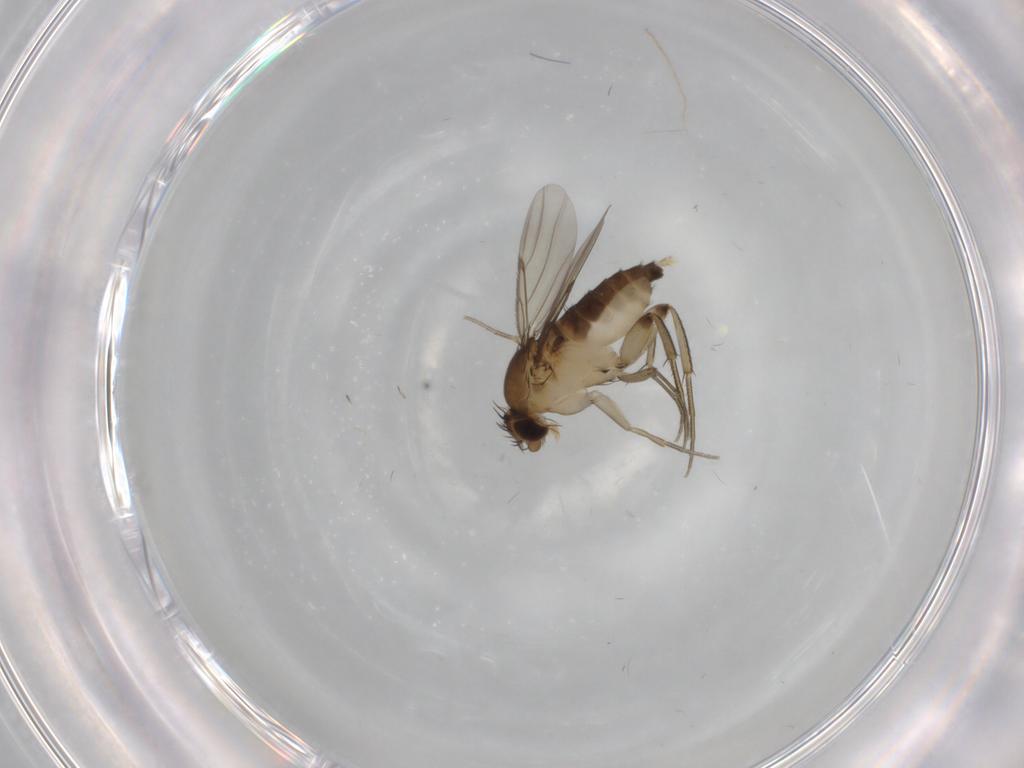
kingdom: Animalia
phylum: Arthropoda
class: Insecta
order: Diptera
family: Phoridae
